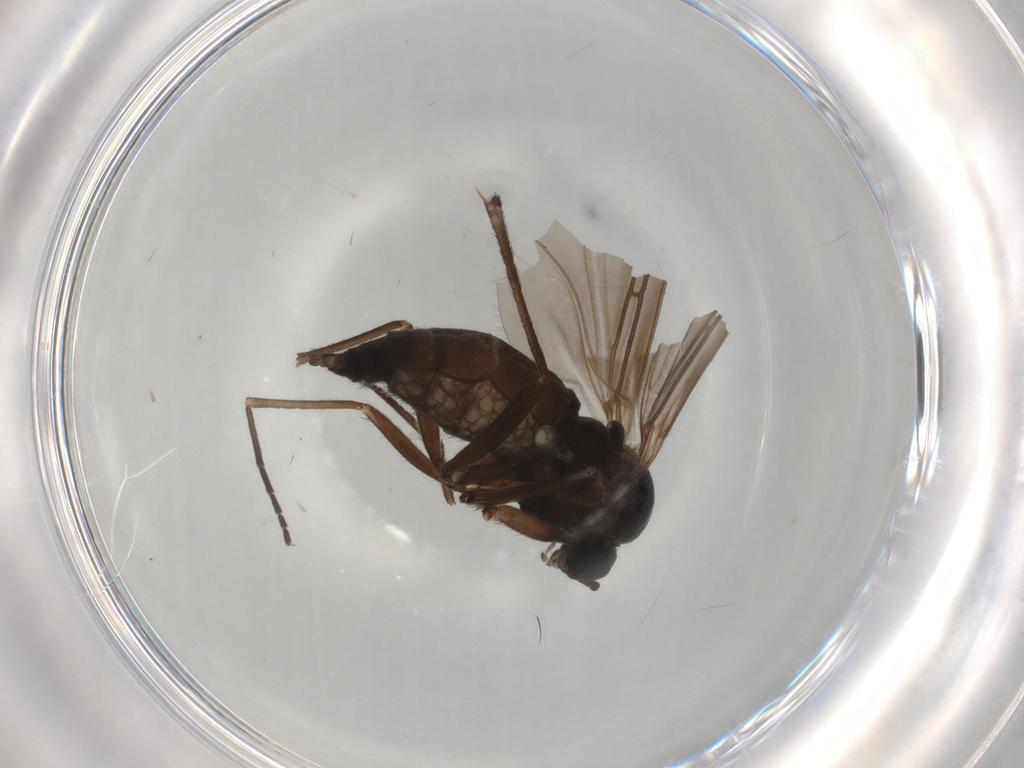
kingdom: Animalia
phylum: Arthropoda
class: Insecta
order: Diptera
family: Sciaridae
